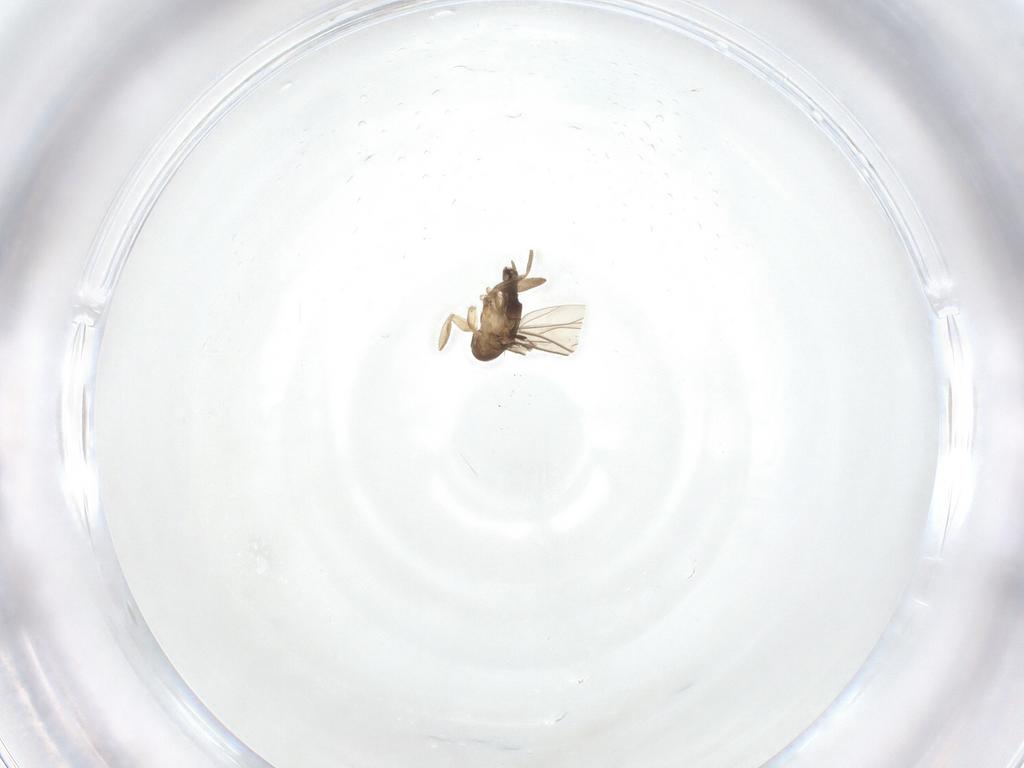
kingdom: Animalia
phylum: Arthropoda
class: Insecta
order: Diptera
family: Phoridae
